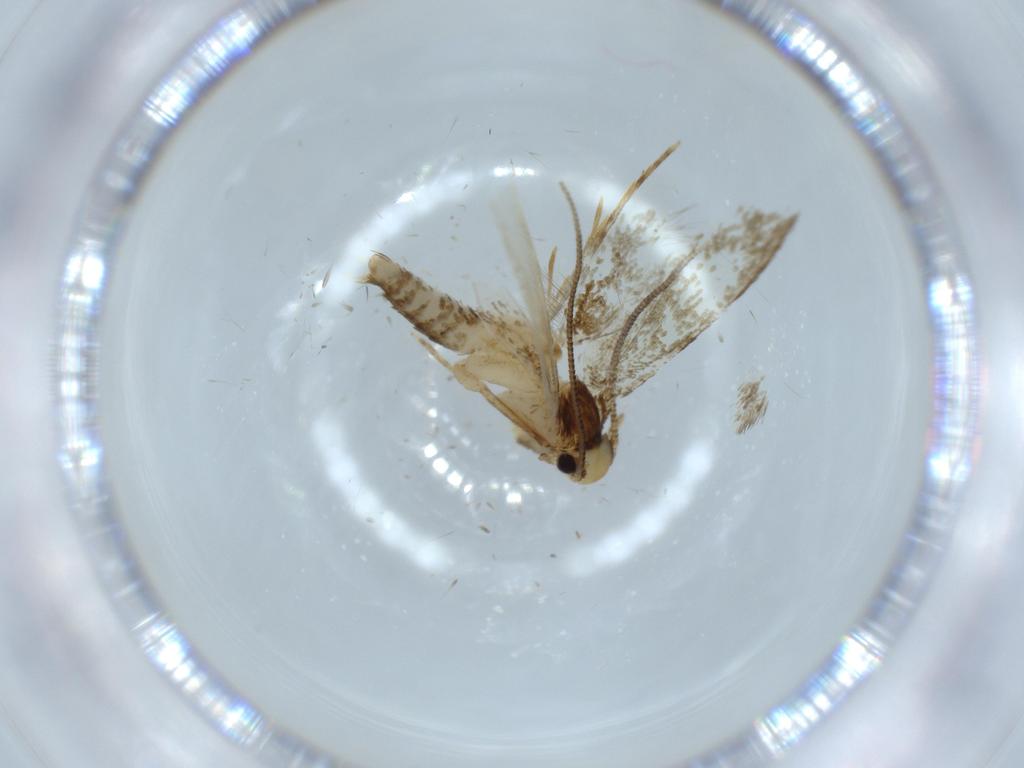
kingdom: Animalia
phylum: Arthropoda
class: Insecta
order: Lepidoptera
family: Tineidae
